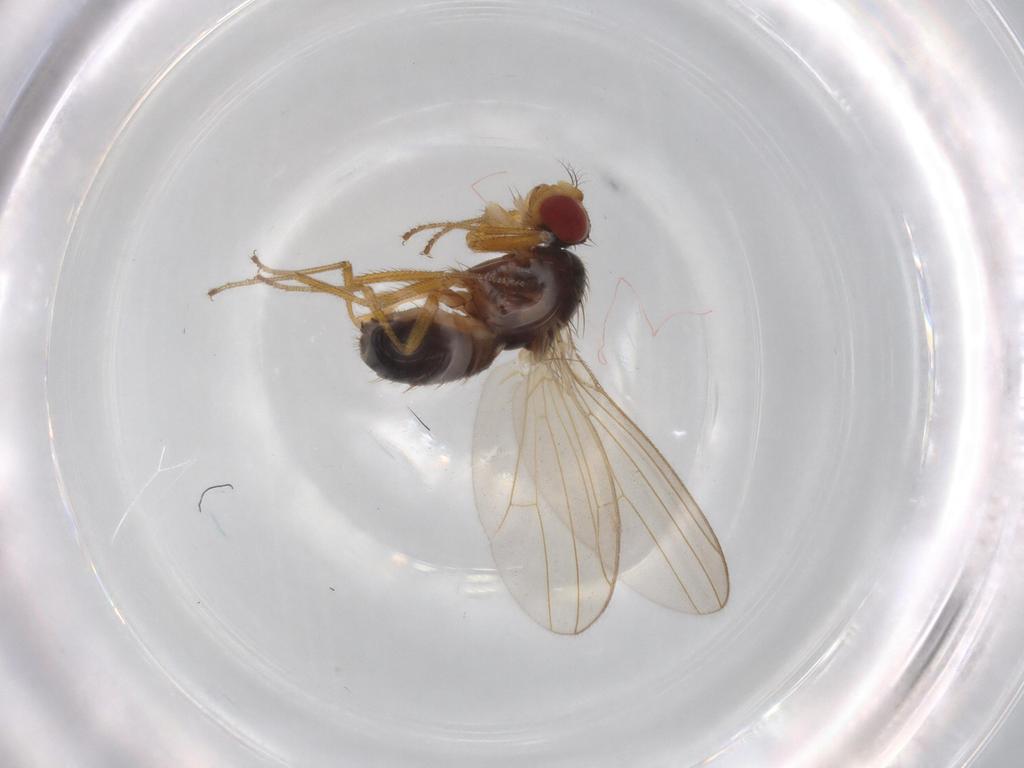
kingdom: Animalia
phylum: Arthropoda
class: Insecta
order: Diptera
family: Drosophilidae
